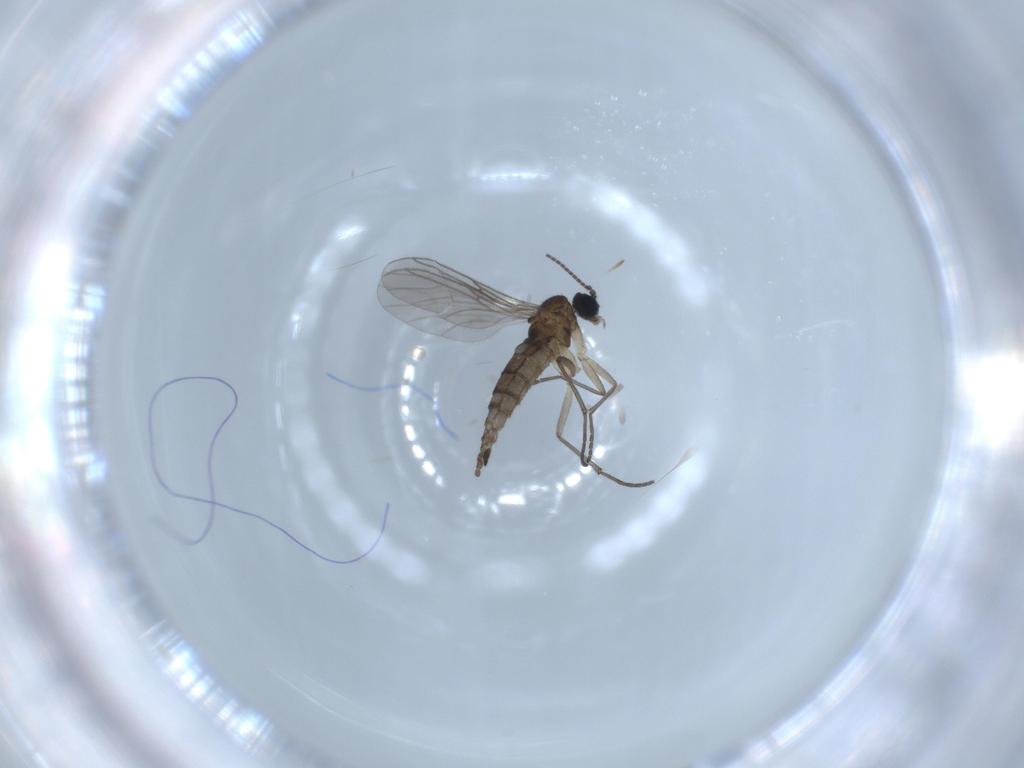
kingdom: Animalia
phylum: Arthropoda
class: Insecta
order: Diptera
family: Sciaridae
